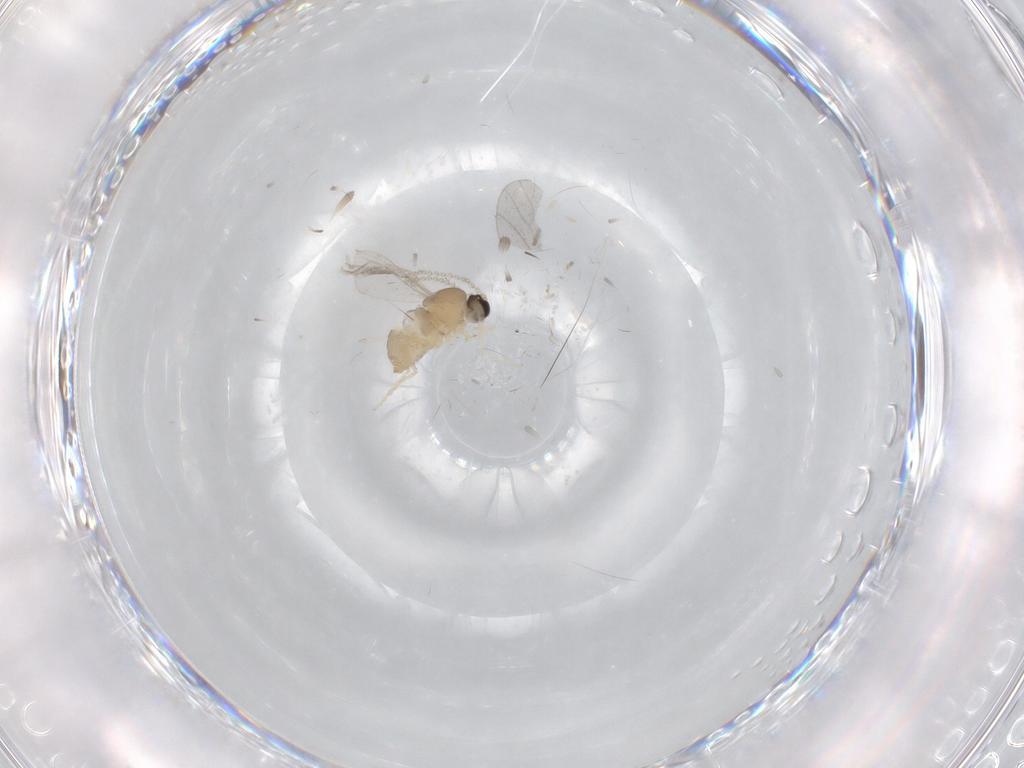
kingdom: Animalia
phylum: Arthropoda
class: Insecta
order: Diptera
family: Cecidomyiidae
